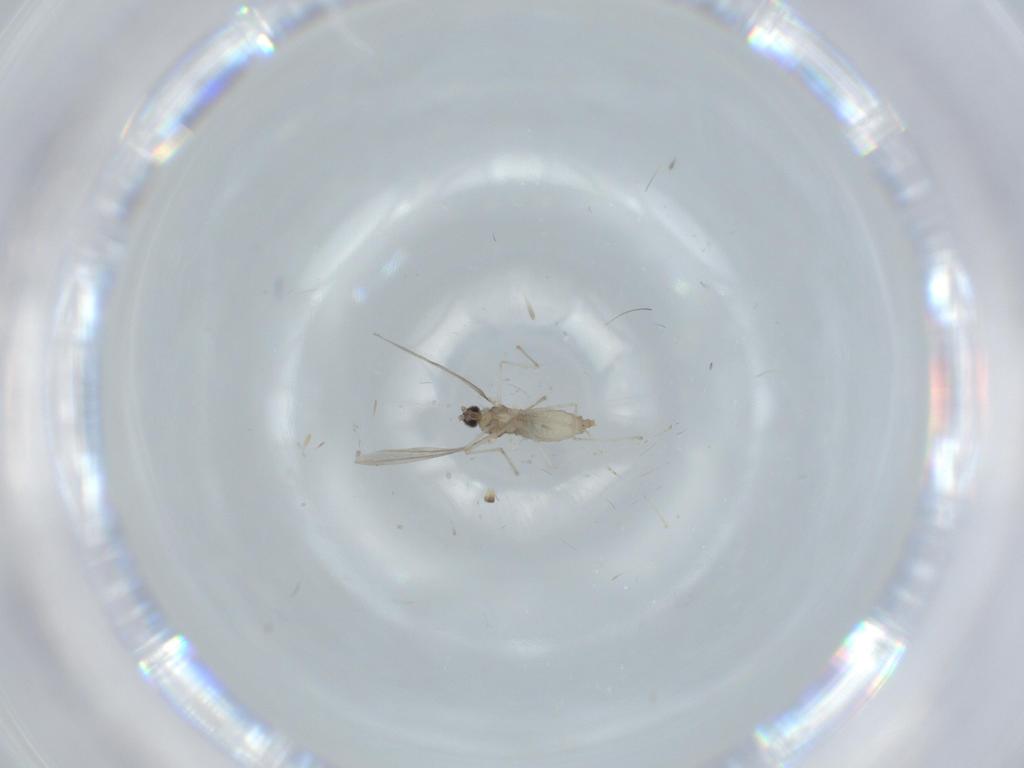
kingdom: Animalia
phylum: Arthropoda
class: Insecta
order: Diptera
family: Cecidomyiidae
